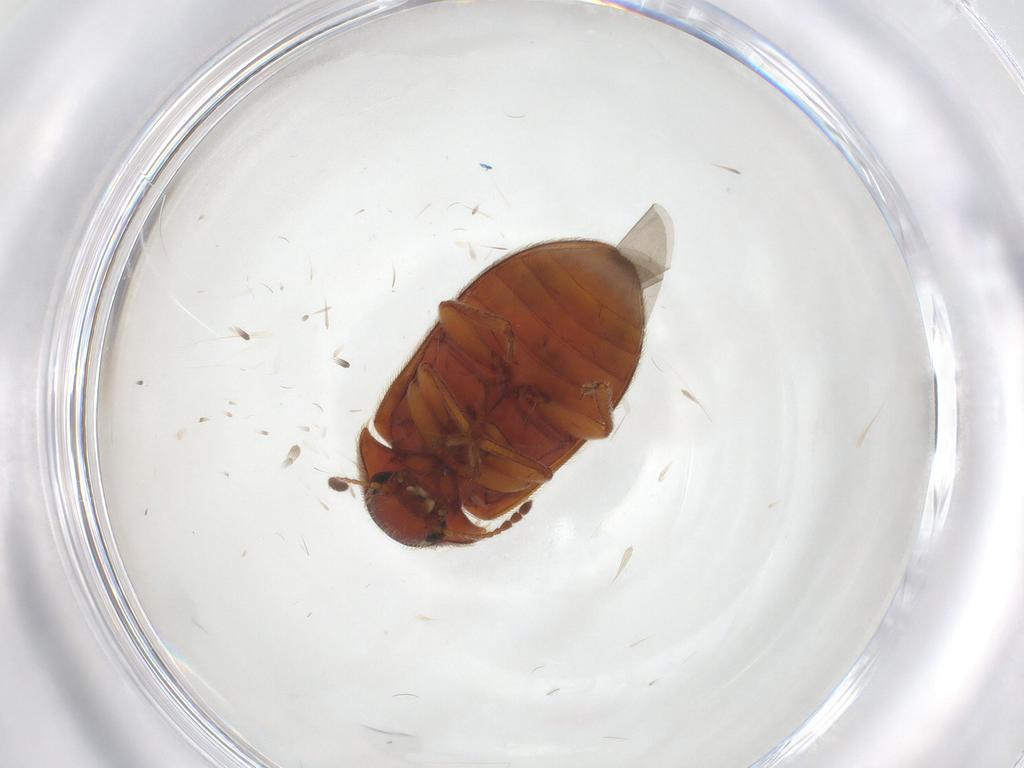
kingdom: Animalia
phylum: Arthropoda
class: Insecta
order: Coleoptera
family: Byturidae
